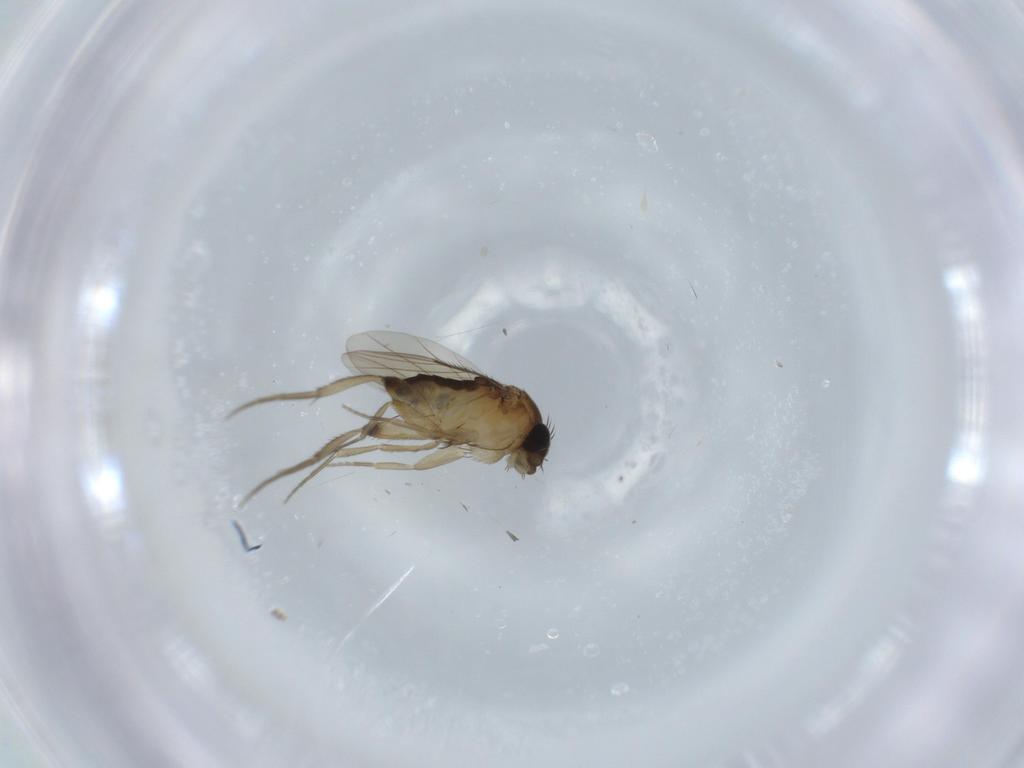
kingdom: Animalia
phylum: Arthropoda
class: Insecta
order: Diptera
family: Phoridae
